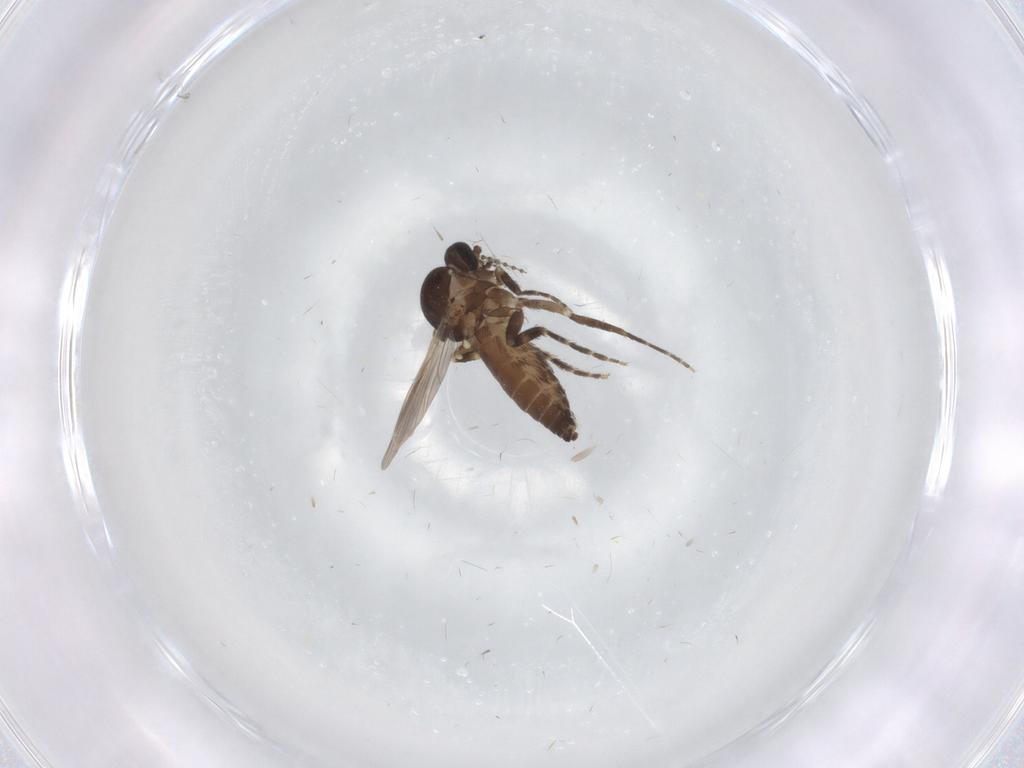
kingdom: Animalia
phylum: Arthropoda
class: Insecta
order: Diptera
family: Ceratopogonidae
